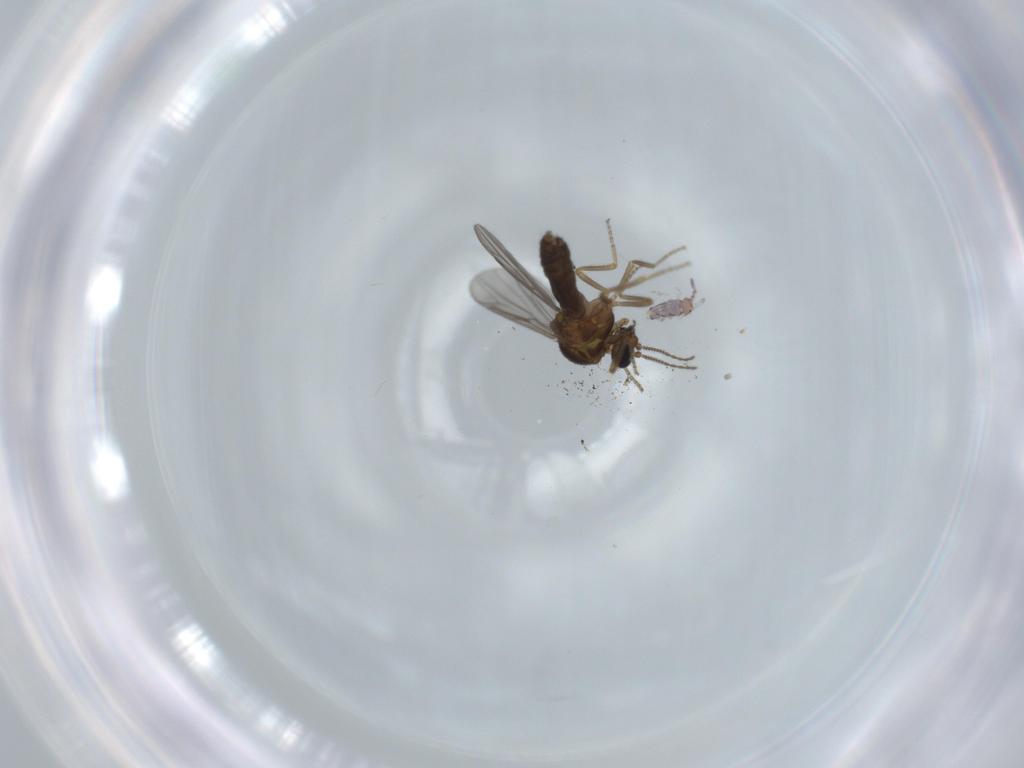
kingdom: Animalia
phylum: Arthropoda
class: Insecta
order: Diptera
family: Ceratopogonidae
